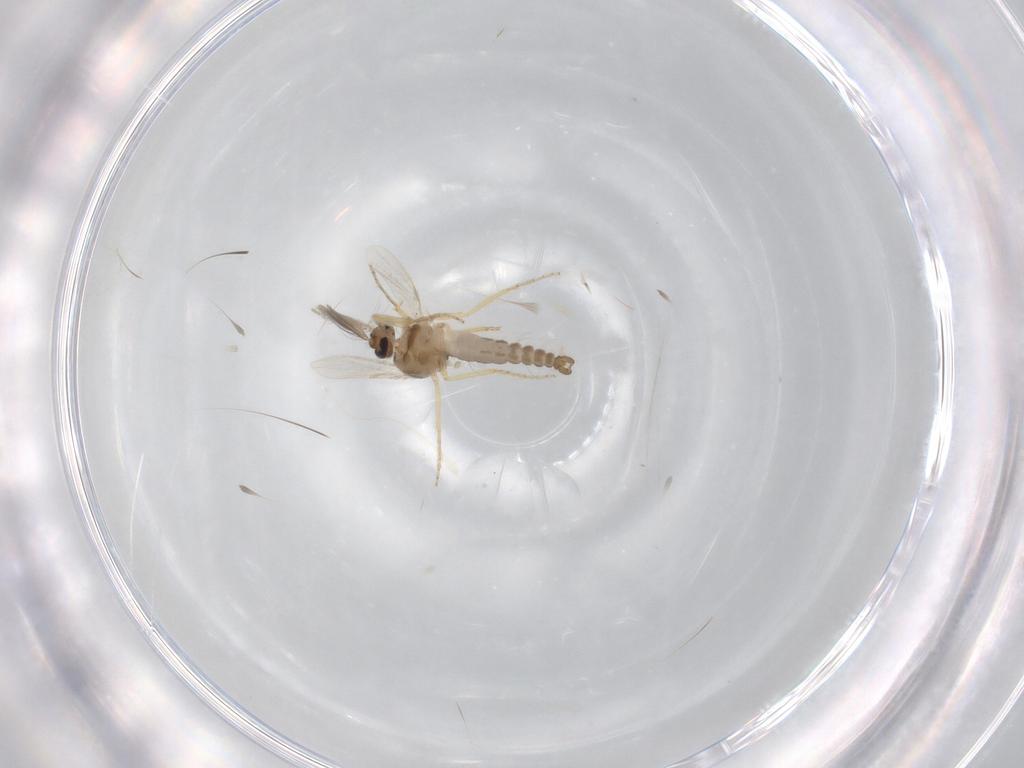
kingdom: Animalia
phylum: Arthropoda
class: Insecta
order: Diptera
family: Ceratopogonidae
